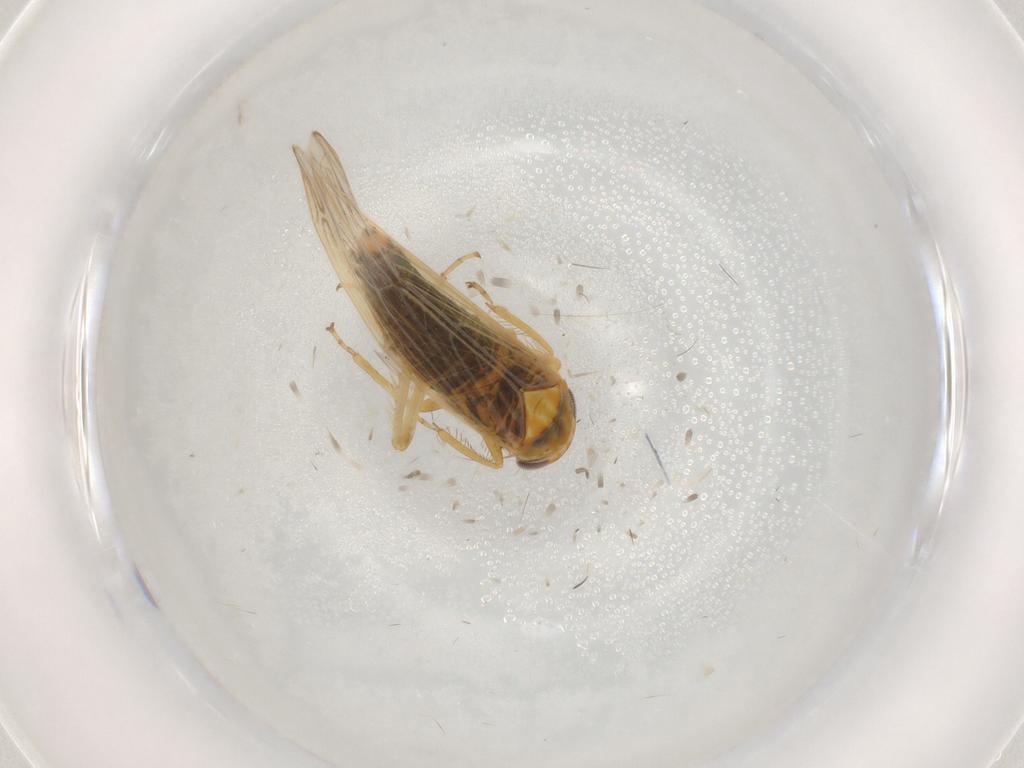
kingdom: Animalia
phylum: Arthropoda
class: Insecta
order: Hemiptera
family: Cicadellidae
